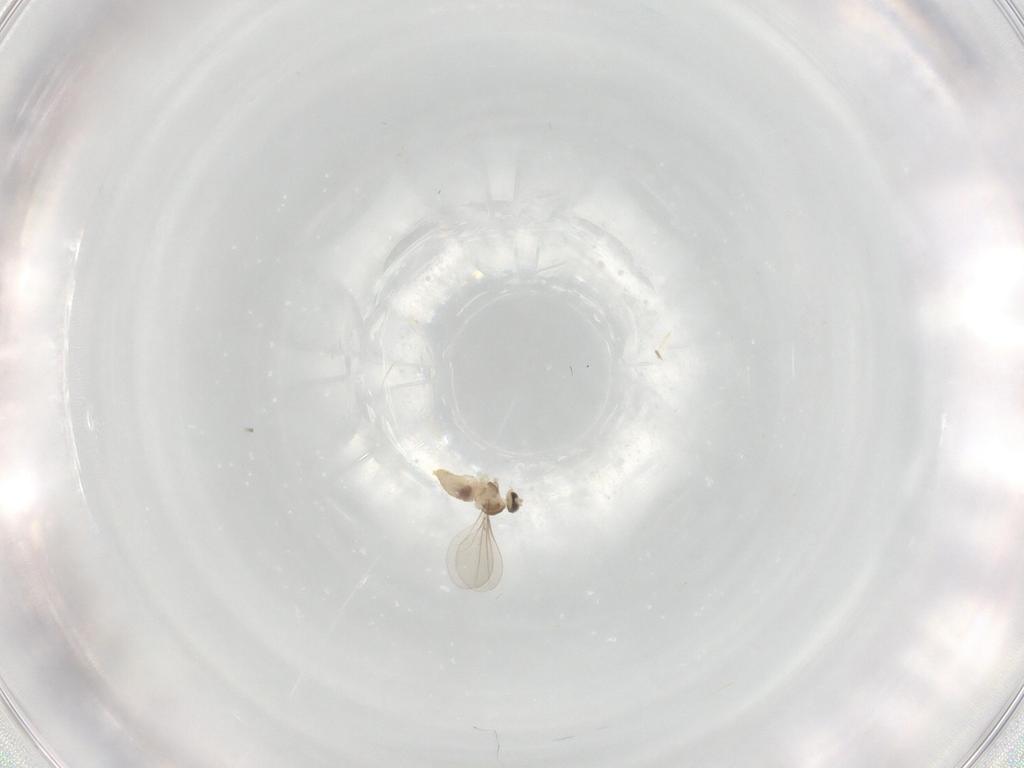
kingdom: Animalia
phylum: Arthropoda
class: Insecta
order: Diptera
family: Cecidomyiidae
